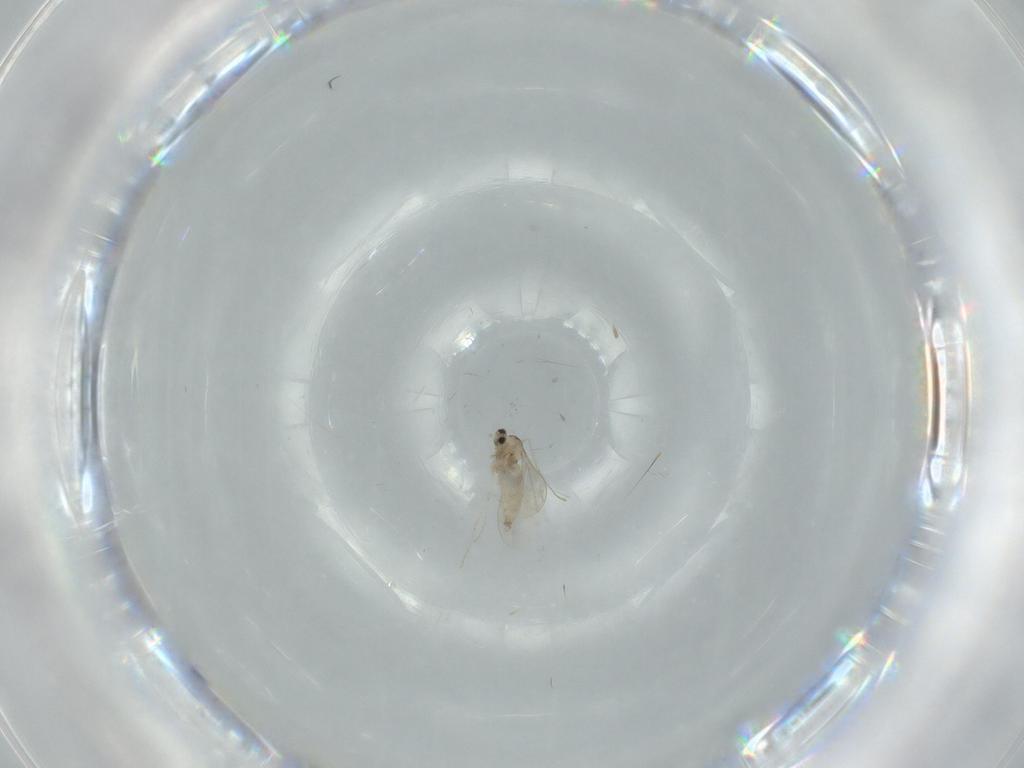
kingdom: Animalia
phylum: Arthropoda
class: Insecta
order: Diptera
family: Cecidomyiidae
